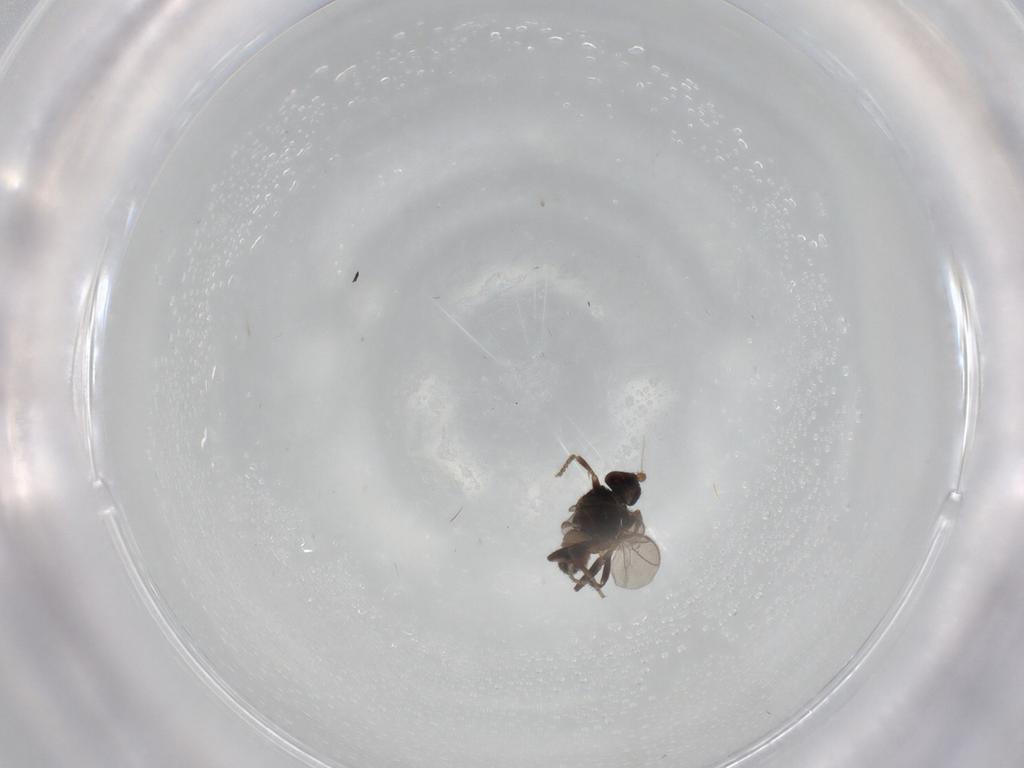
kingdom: Animalia
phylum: Arthropoda
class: Insecta
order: Diptera
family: Sphaeroceridae
